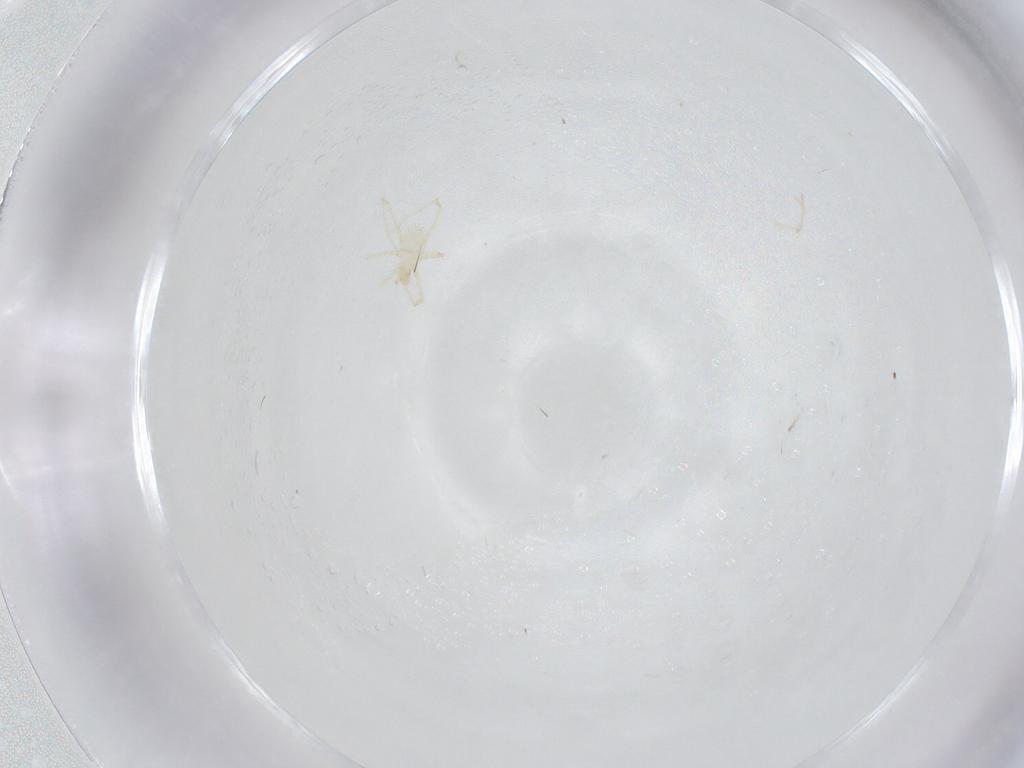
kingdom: Animalia
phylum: Arthropoda
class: Arachnida
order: Trombidiformes
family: Erythraeidae
